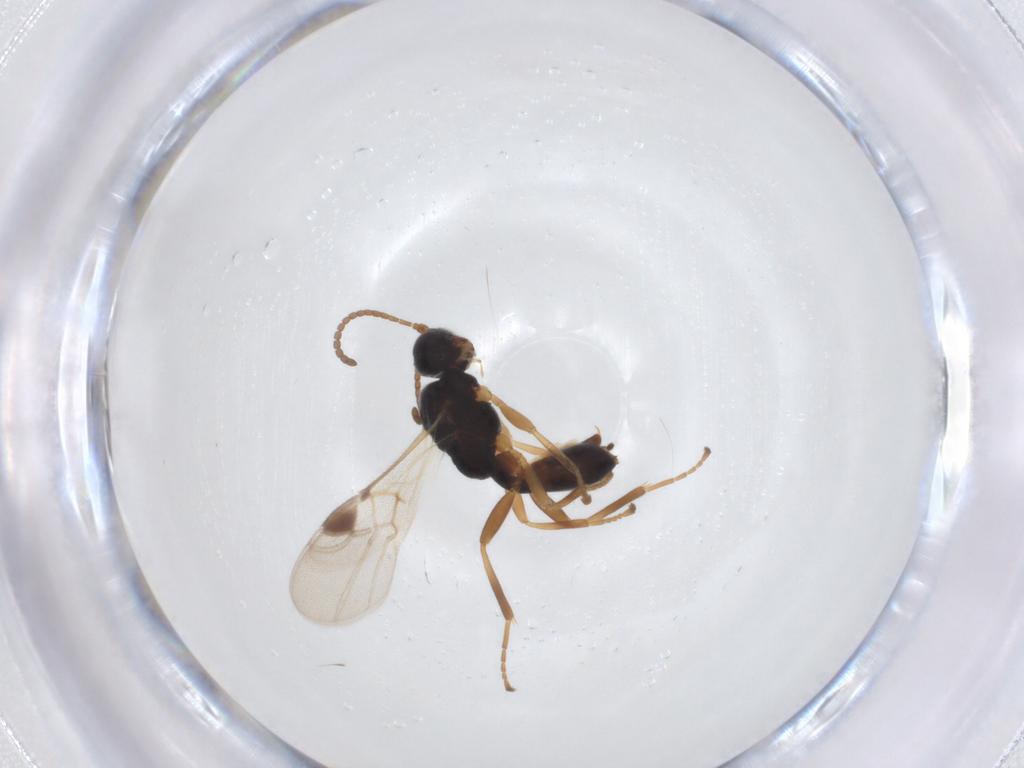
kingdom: Animalia
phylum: Arthropoda
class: Insecta
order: Hymenoptera
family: Braconidae
